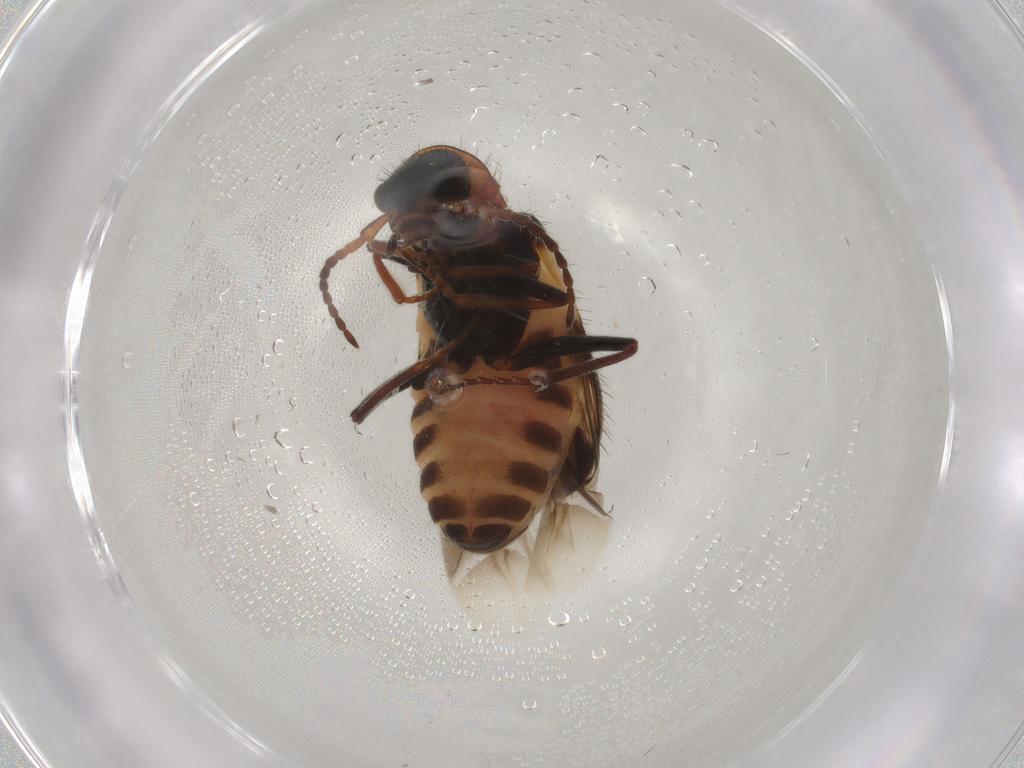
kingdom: Animalia
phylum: Arthropoda
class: Insecta
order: Coleoptera
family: Melyridae
